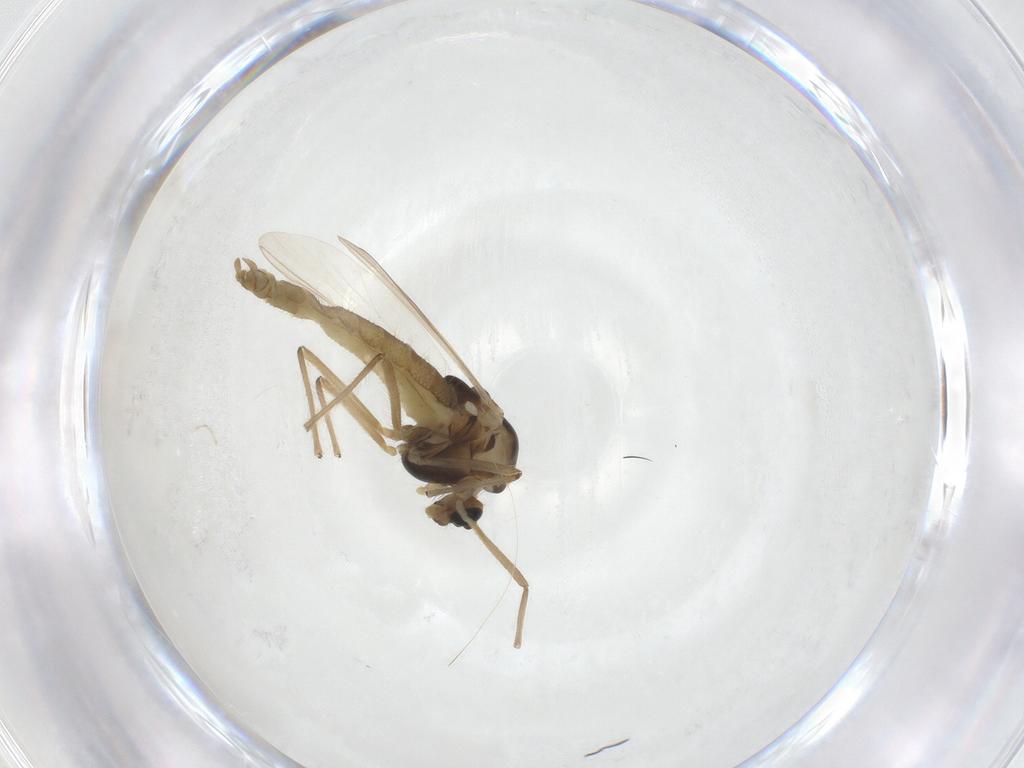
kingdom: Animalia
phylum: Arthropoda
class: Insecta
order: Diptera
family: Chironomidae
